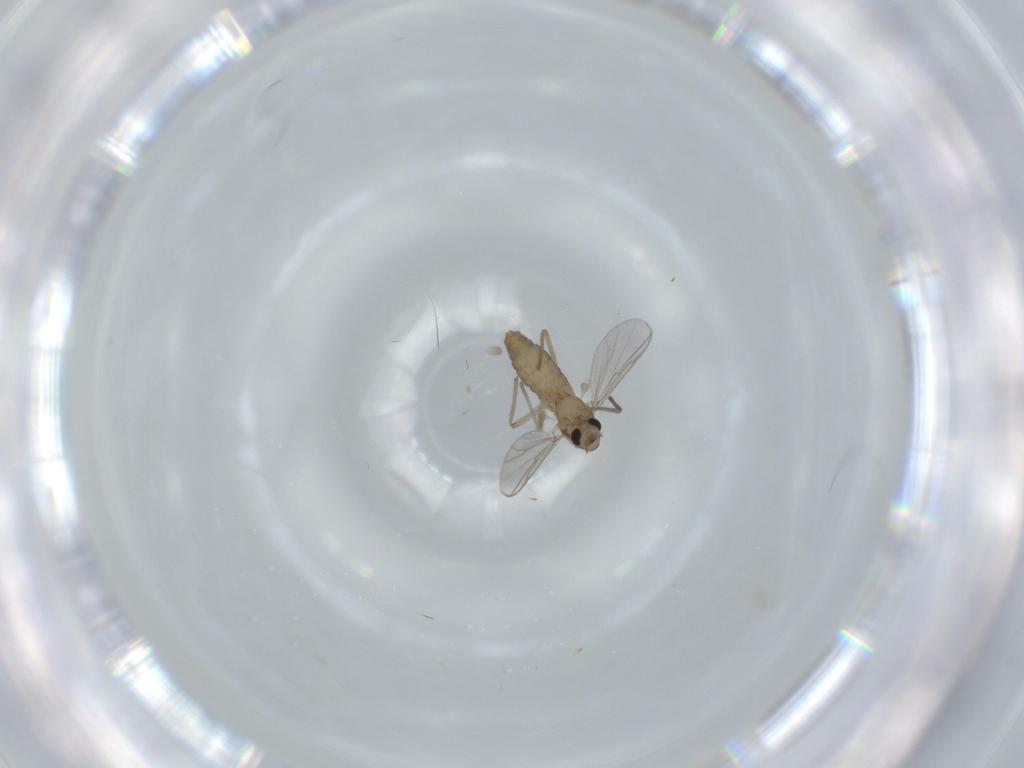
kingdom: Animalia
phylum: Arthropoda
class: Insecta
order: Diptera
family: Chironomidae
